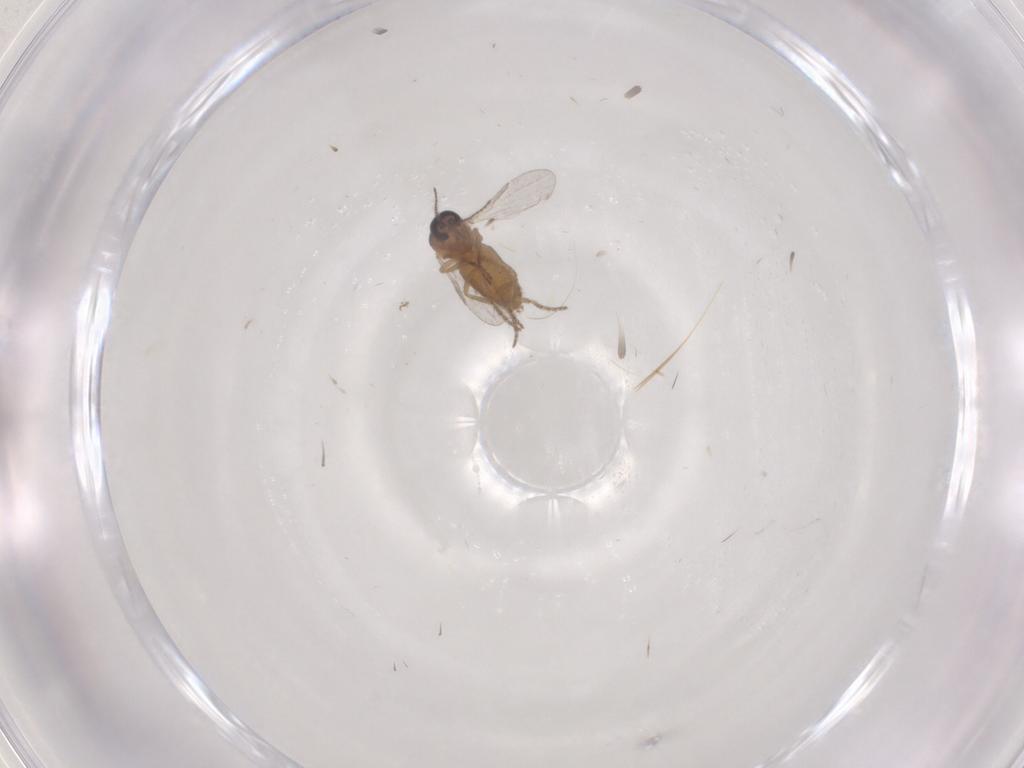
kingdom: Animalia
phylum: Arthropoda
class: Insecta
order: Diptera
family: Ceratopogonidae
